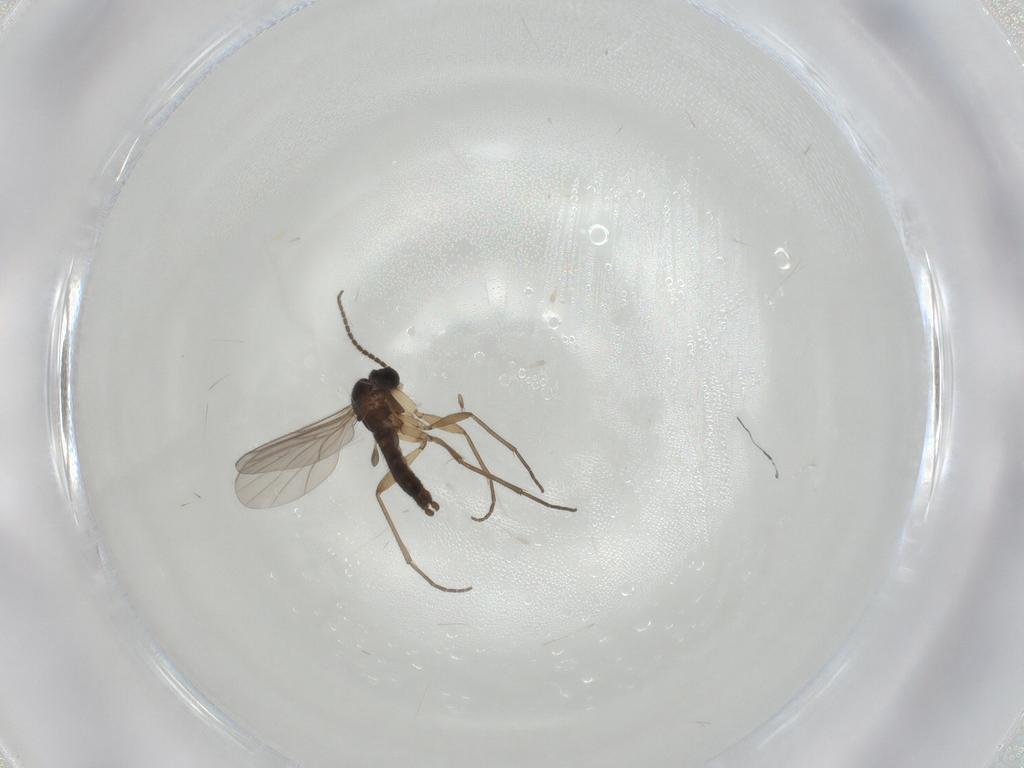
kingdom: Animalia
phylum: Arthropoda
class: Insecta
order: Lepidoptera
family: Limacodidae
